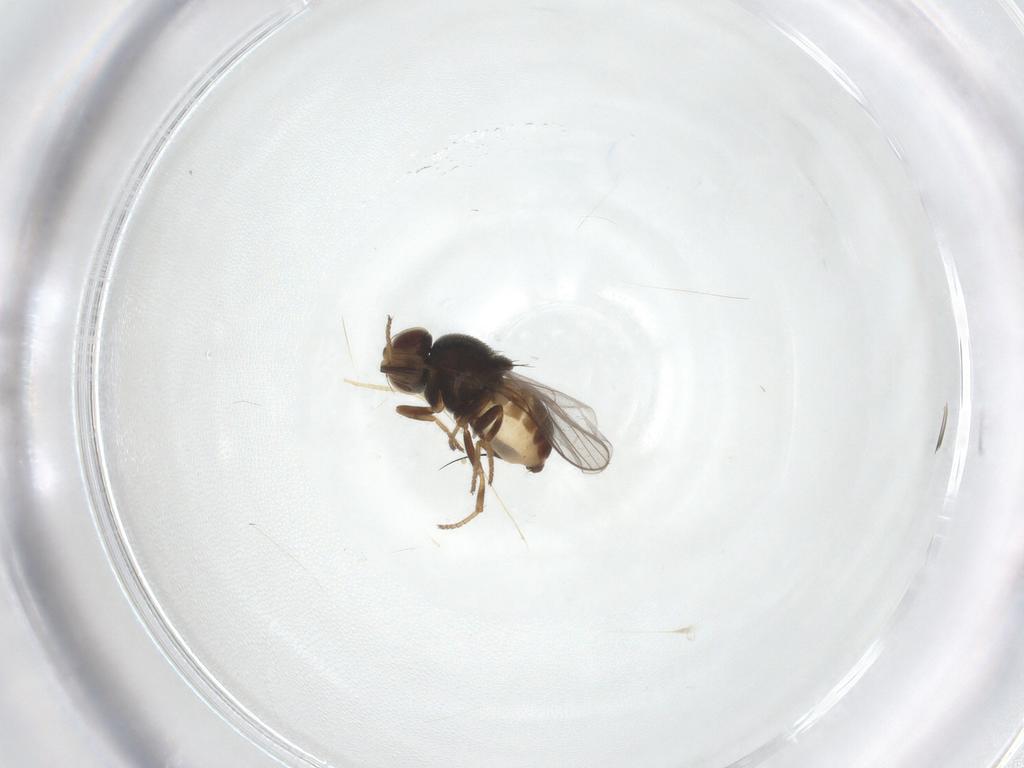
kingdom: Animalia
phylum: Arthropoda
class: Insecta
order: Diptera
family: Chloropidae
